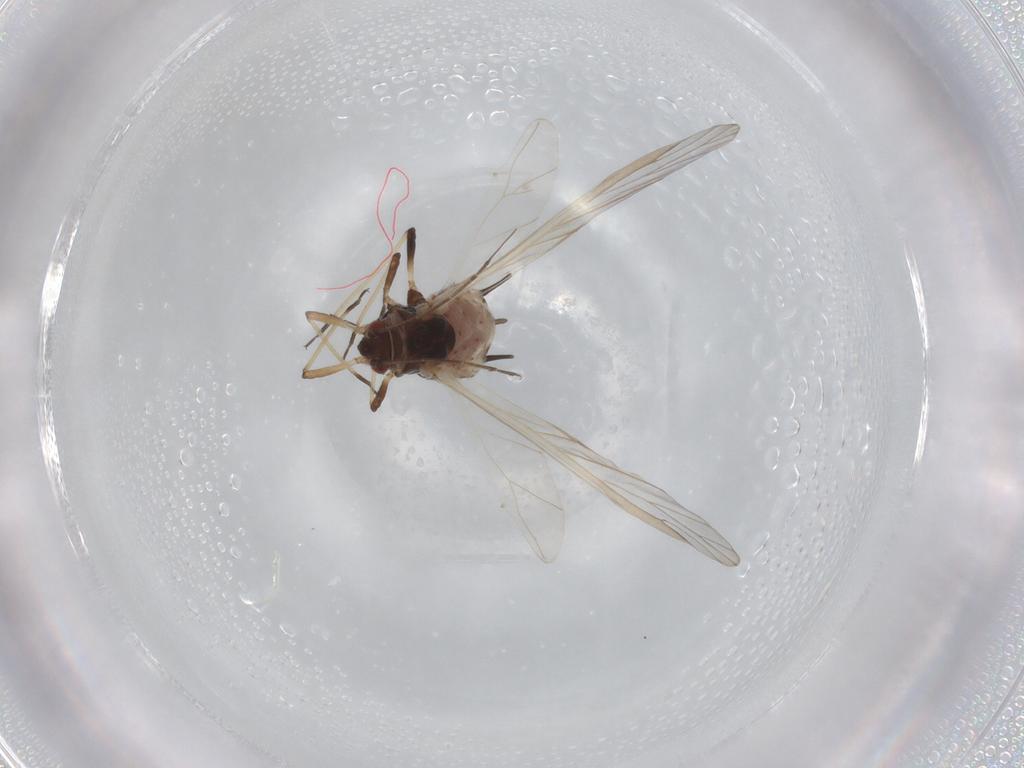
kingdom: Animalia
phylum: Arthropoda
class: Insecta
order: Hemiptera
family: Aphididae
